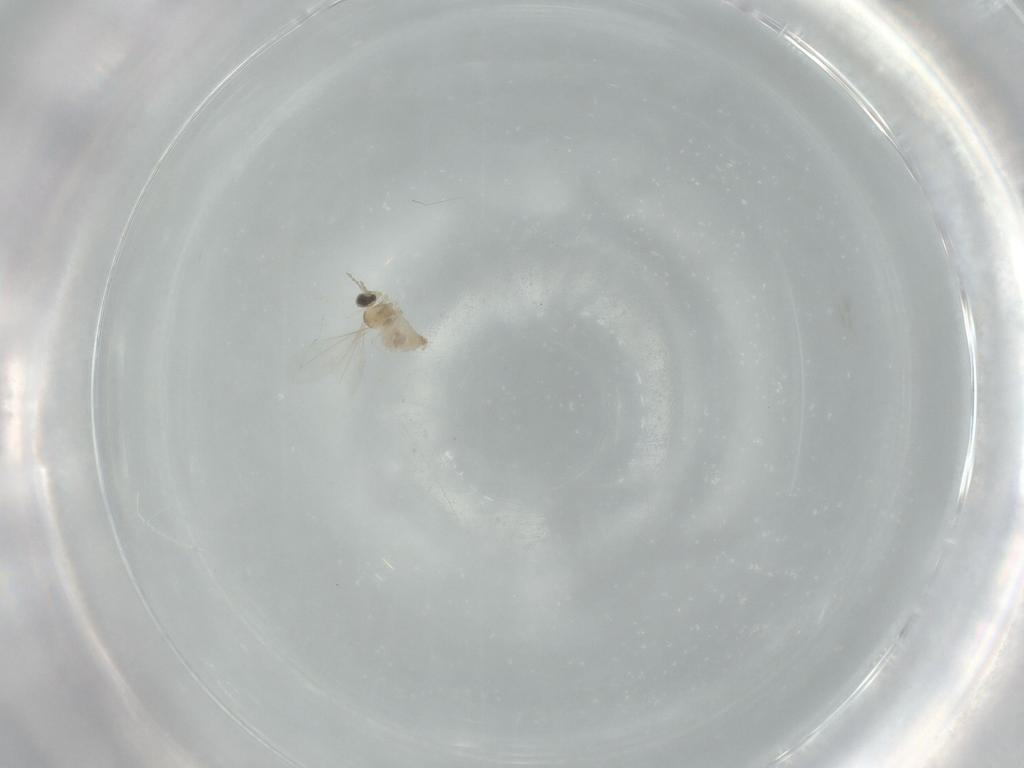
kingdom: Animalia
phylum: Arthropoda
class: Insecta
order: Diptera
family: Cecidomyiidae
